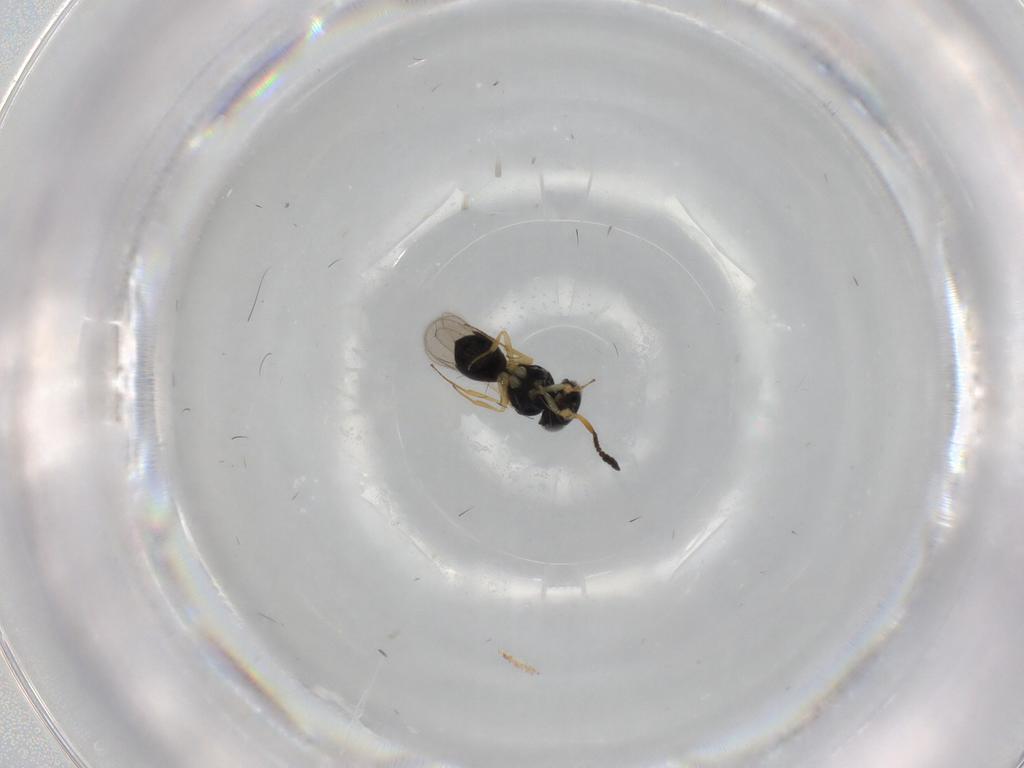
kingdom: Animalia
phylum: Arthropoda
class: Insecta
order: Hymenoptera
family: Scelionidae
